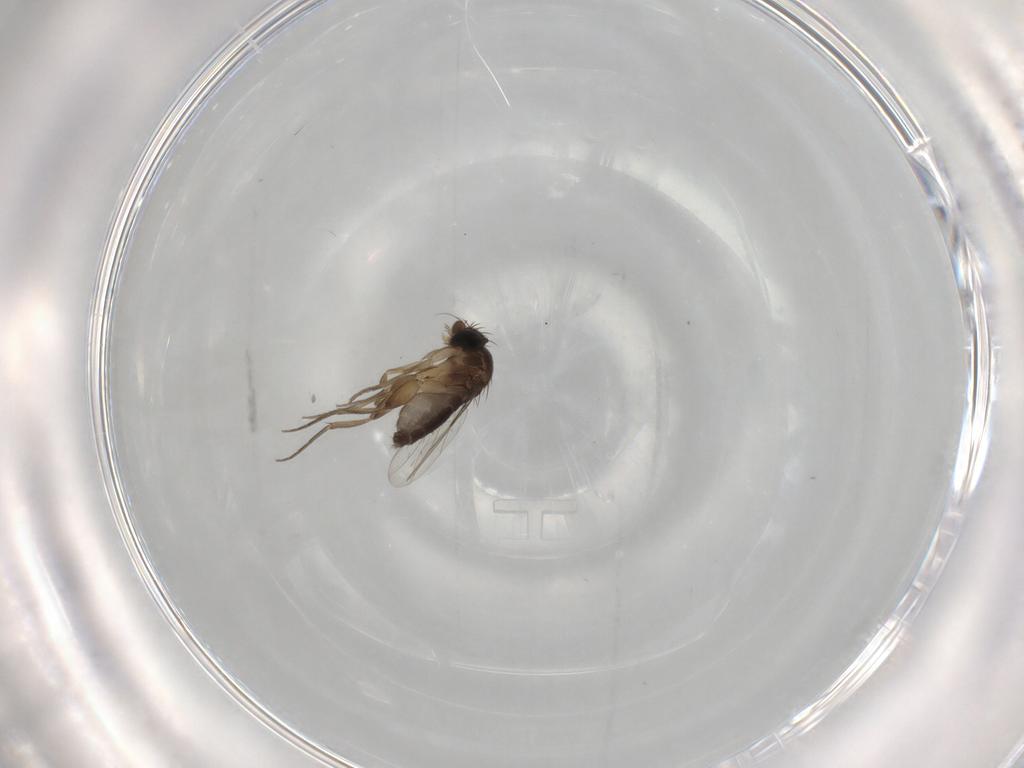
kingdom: Animalia
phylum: Arthropoda
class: Insecta
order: Diptera
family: Phoridae
